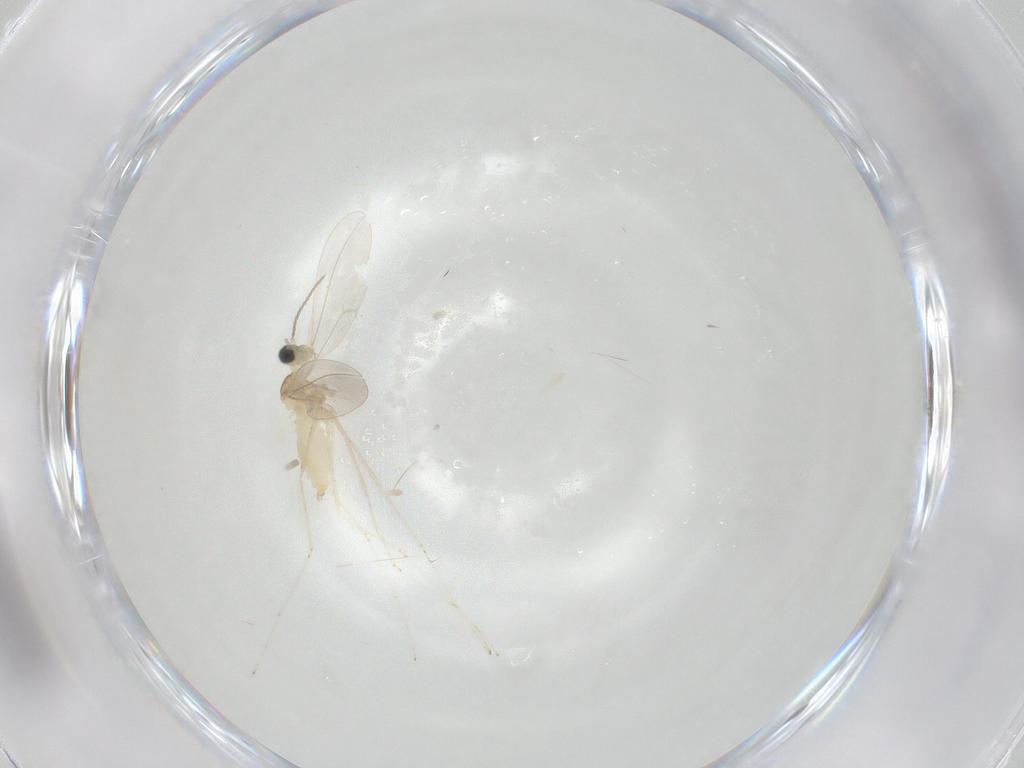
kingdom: Animalia
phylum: Arthropoda
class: Insecta
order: Diptera
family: Cecidomyiidae
